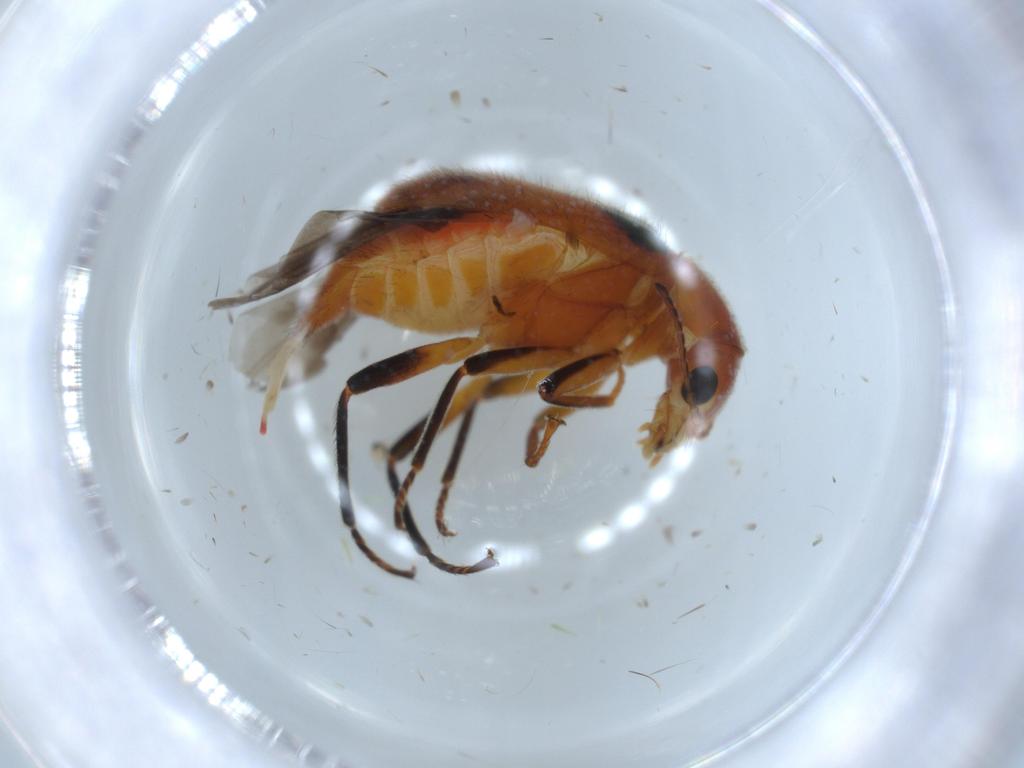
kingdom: Animalia
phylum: Arthropoda
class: Insecta
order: Coleoptera
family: Melyridae
